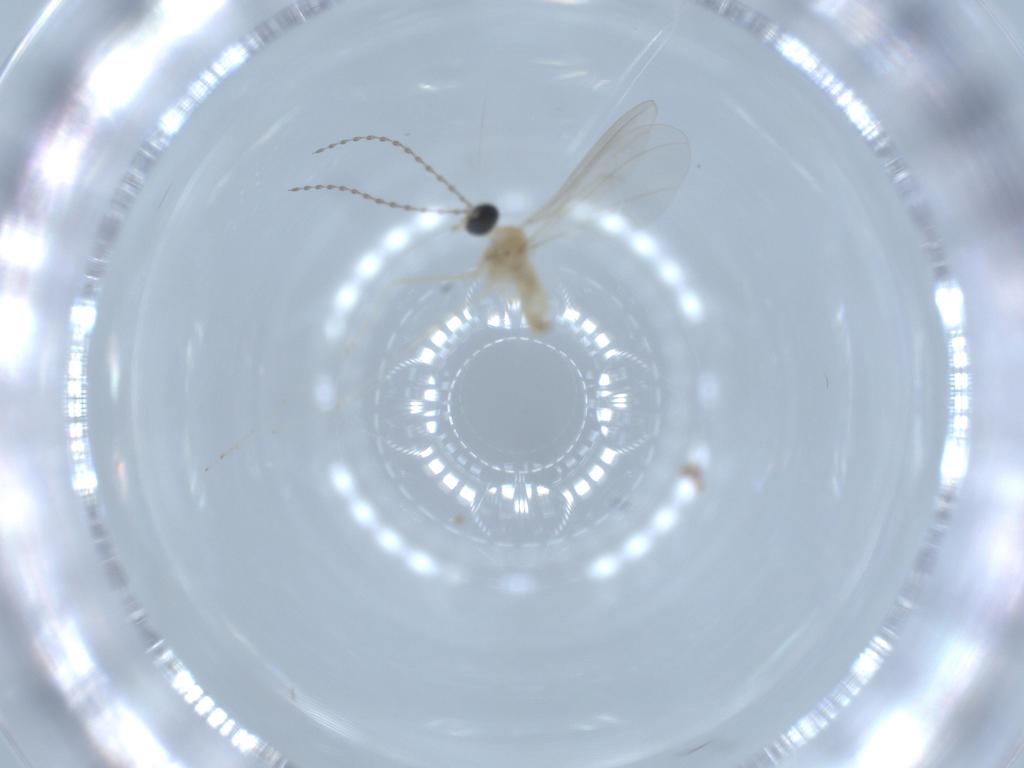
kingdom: Animalia
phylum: Arthropoda
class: Insecta
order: Diptera
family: Cecidomyiidae
